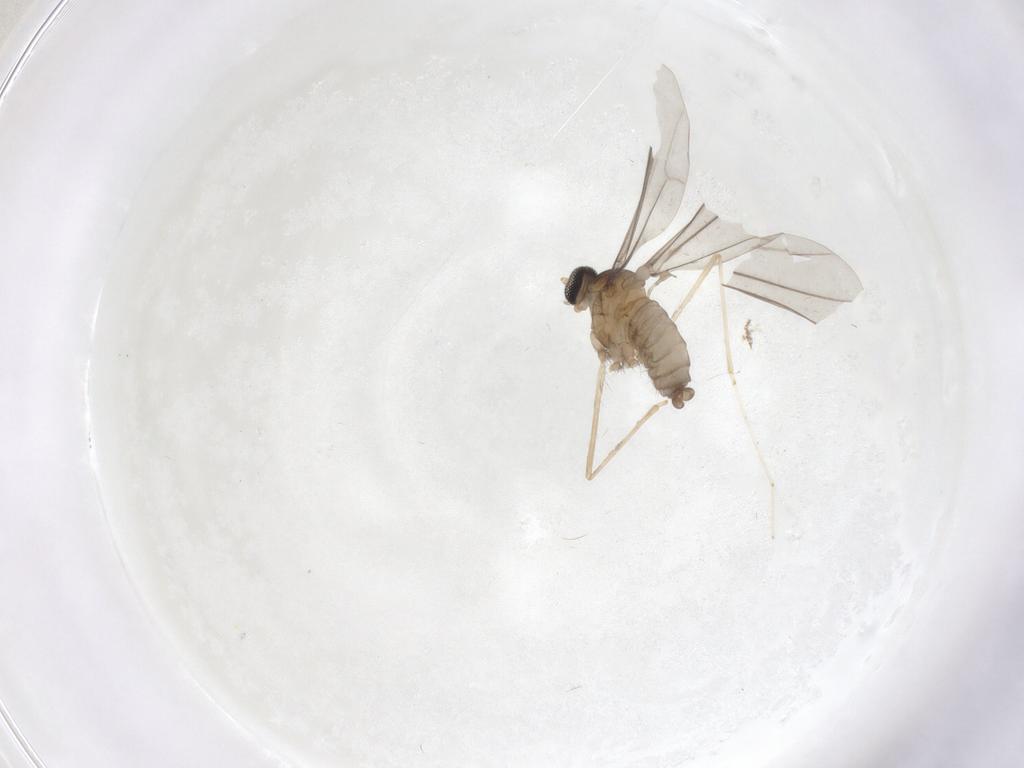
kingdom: Animalia
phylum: Arthropoda
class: Insecta
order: Diptera
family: Cecidomyiidae
